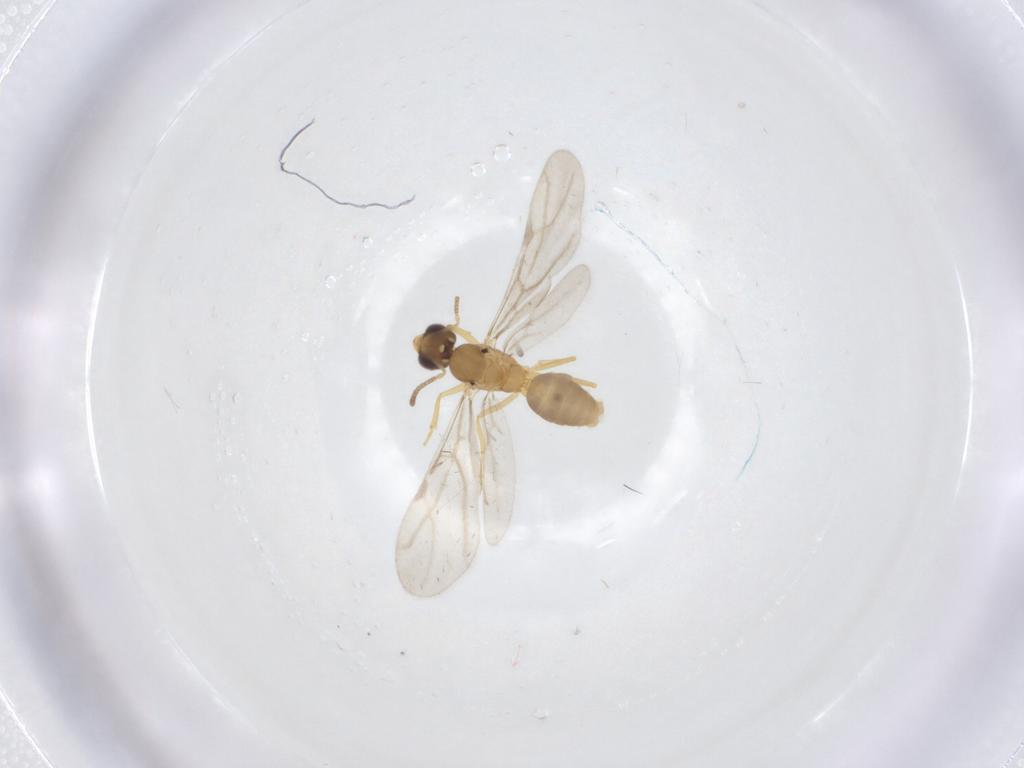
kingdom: Animalia
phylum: Arthropoda
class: Insecta
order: Hymenoptera
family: Formicidae
